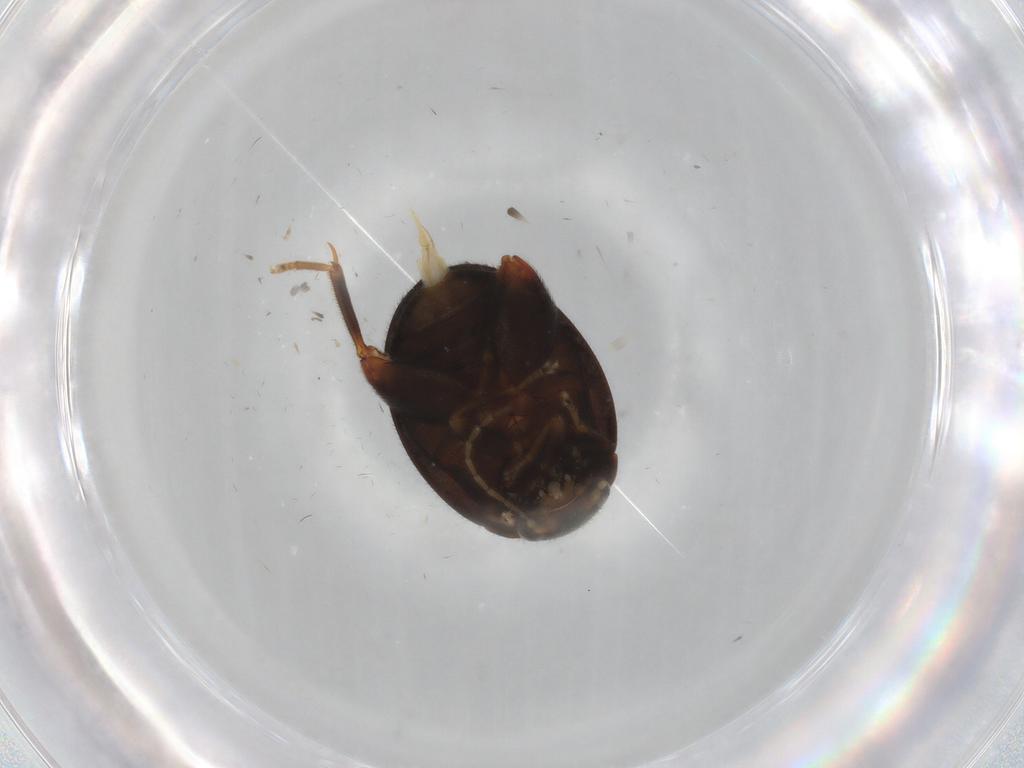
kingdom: Animalia
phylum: Arthropoda
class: Insecta
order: Coleoptera
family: Scirtidae
